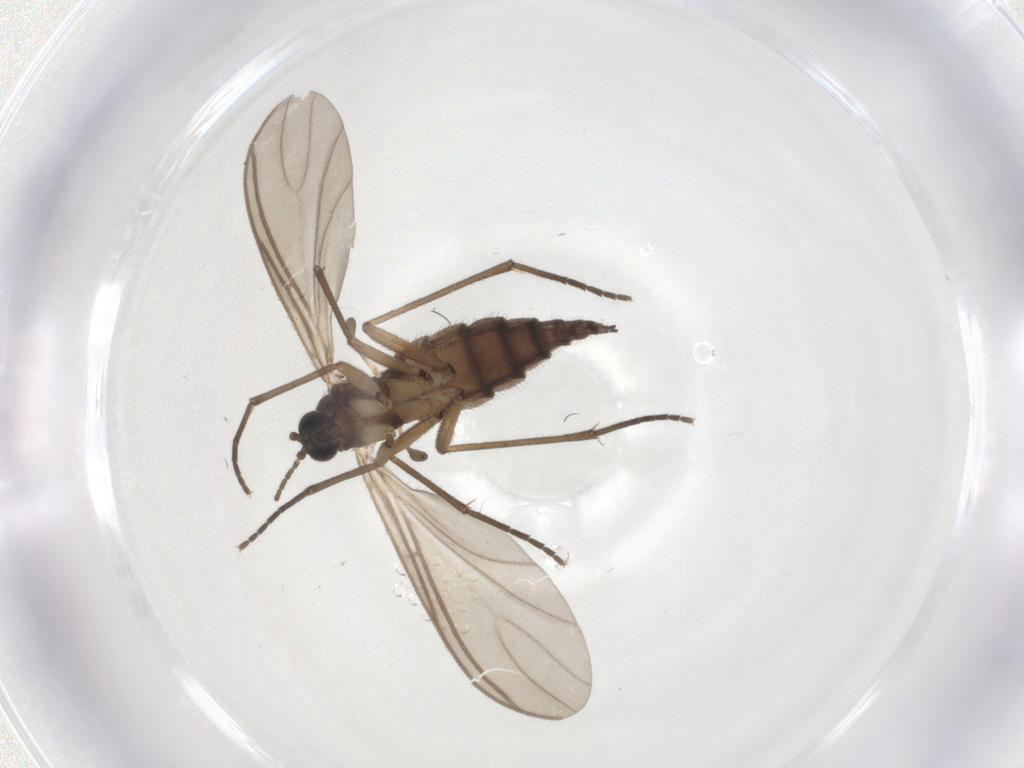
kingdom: Animalia
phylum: Arthropoda
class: Insecta
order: Diptera
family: Sciaridae
